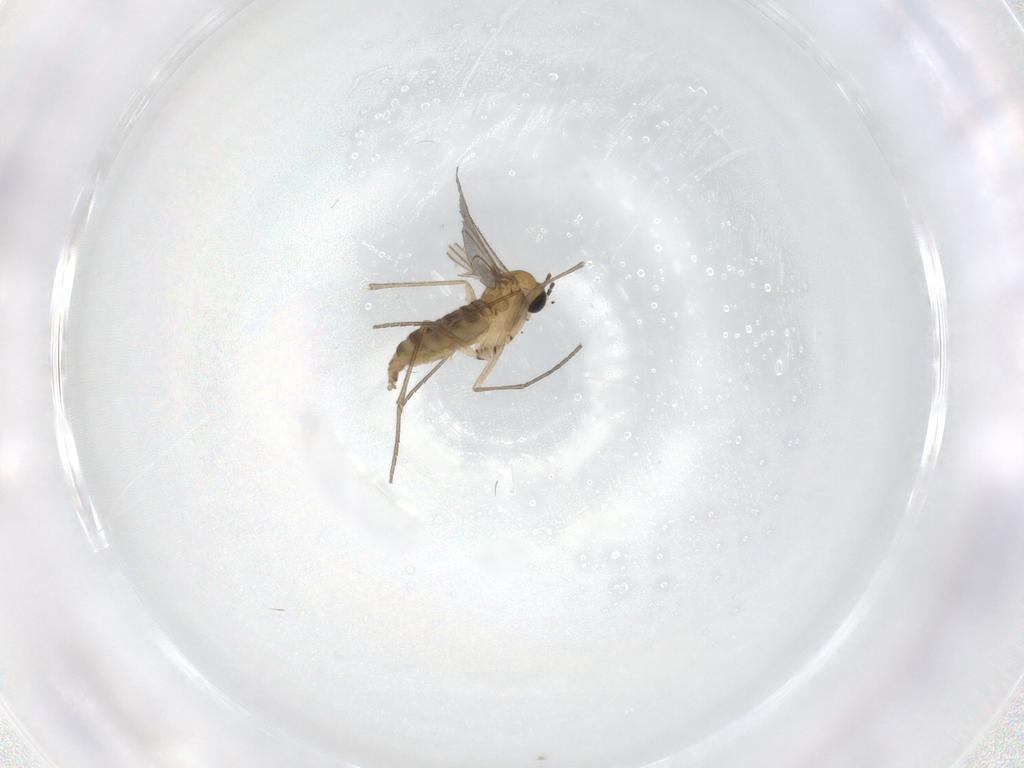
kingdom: Animalia
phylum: Arthropoda
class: Insecta
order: Diptera
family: Sciaridae
